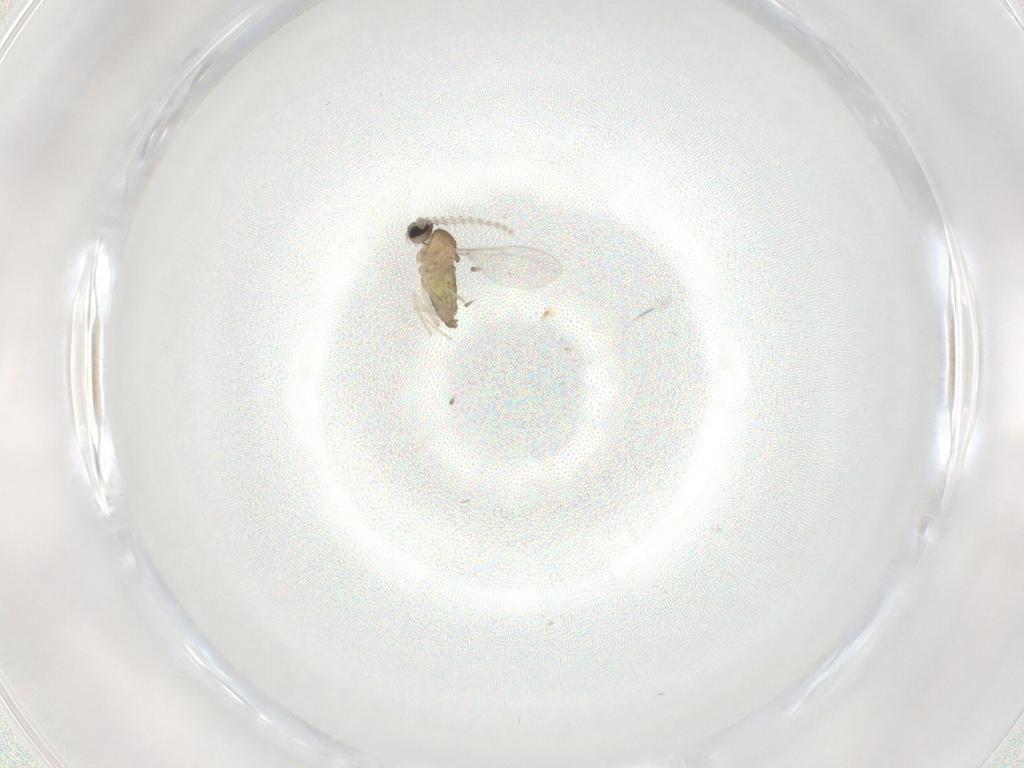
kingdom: Animalia
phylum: Arthropoda
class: Insecta
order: Diptera
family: Cecidomyiidae
